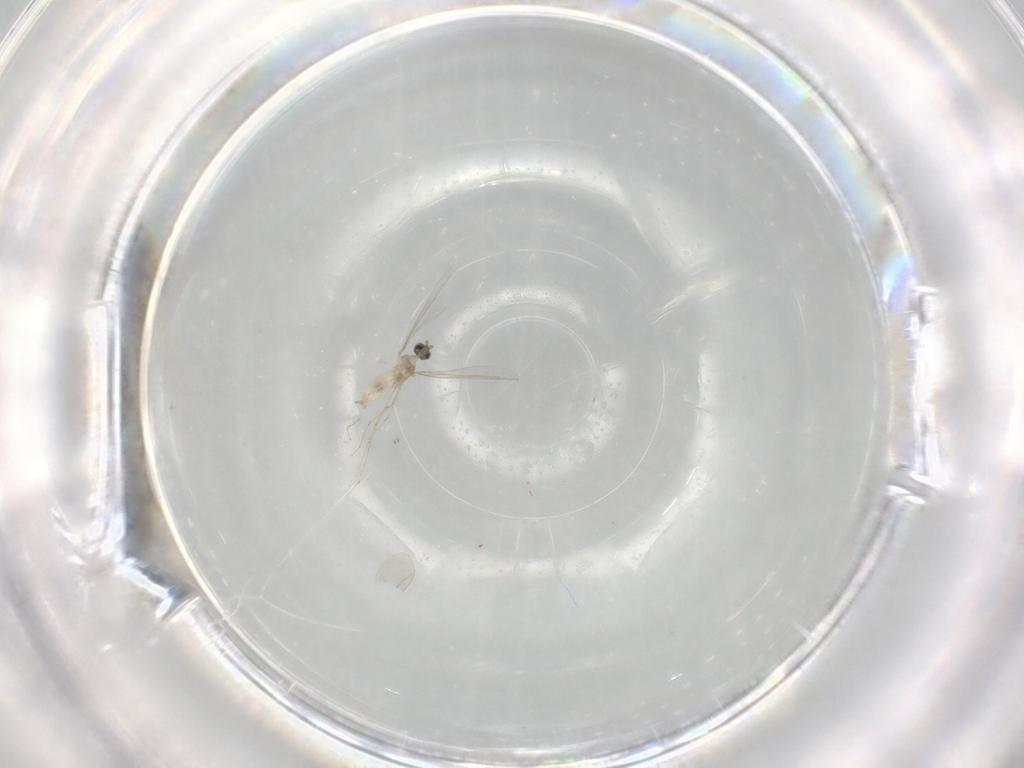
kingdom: Animalia
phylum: Arthropoda
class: Insecta
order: Diptera
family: Cecidomyiidae
